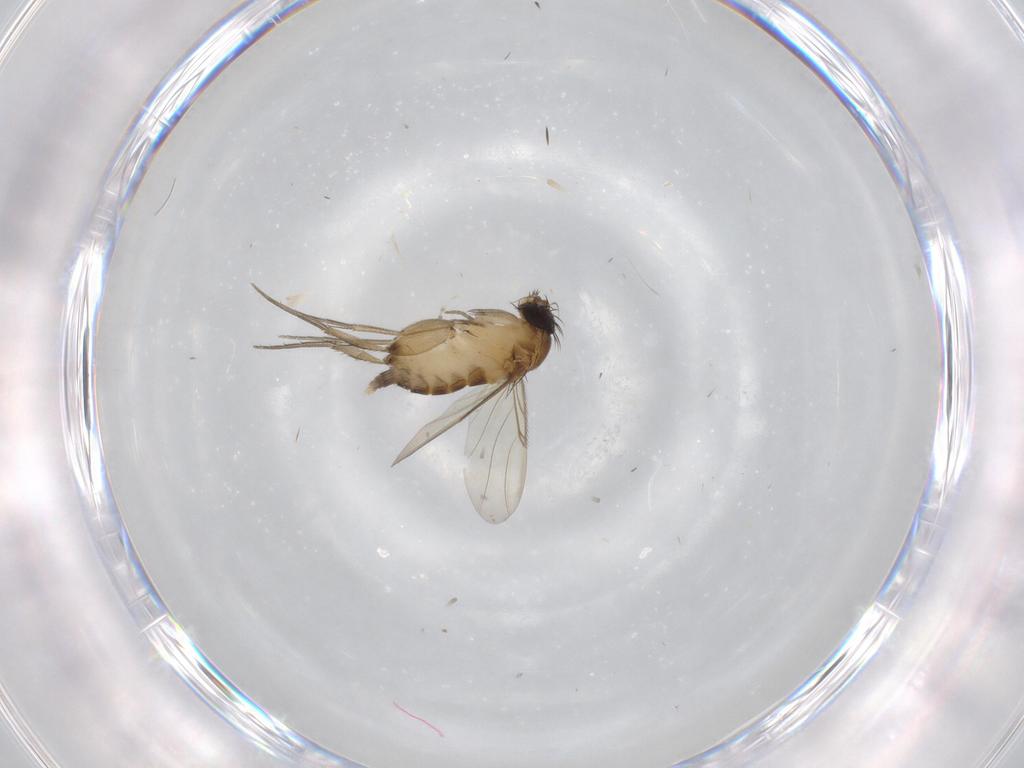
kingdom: Animalia
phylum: Arthropoda
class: Insecta
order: Diptera
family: Phoridae
